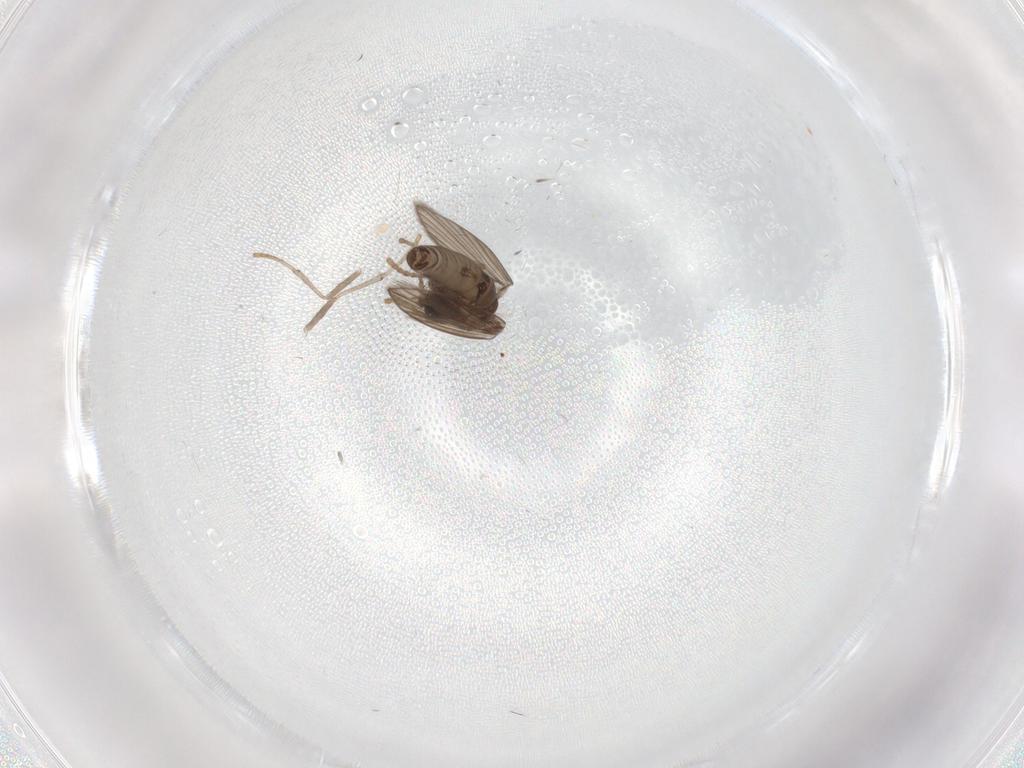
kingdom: Animalia
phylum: Arthropoda
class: Insecta
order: Diptera
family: Psychodidae
